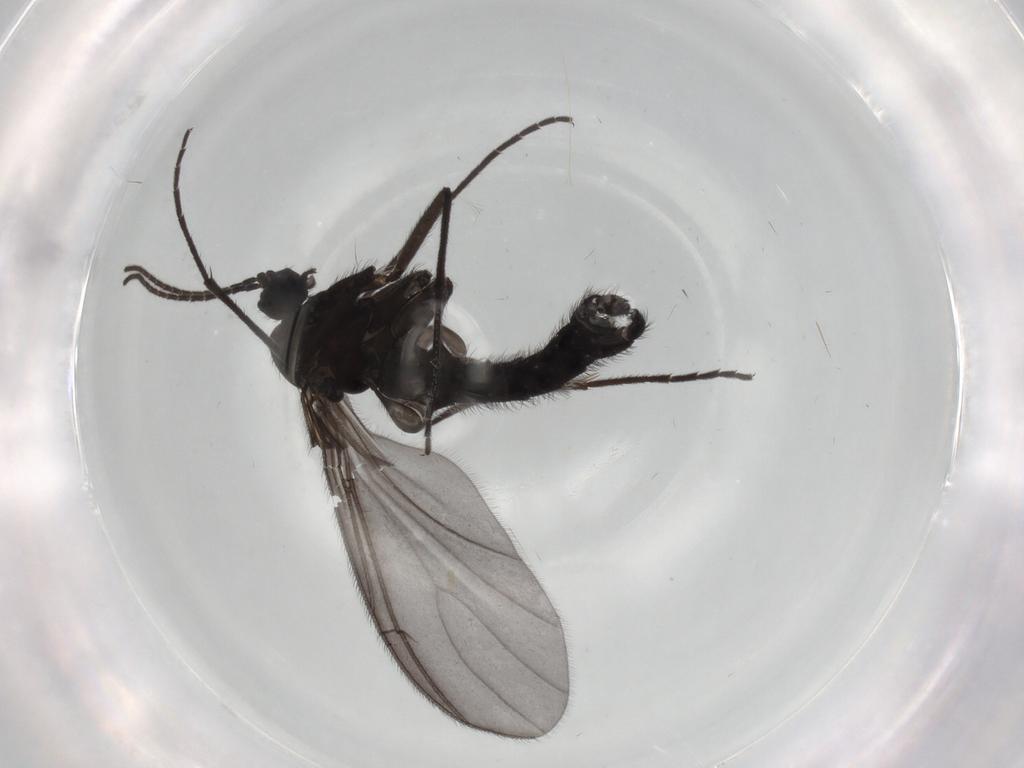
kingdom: Animalia
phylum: Arthropoda
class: Insecta
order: Diptera
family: Sciaridae
